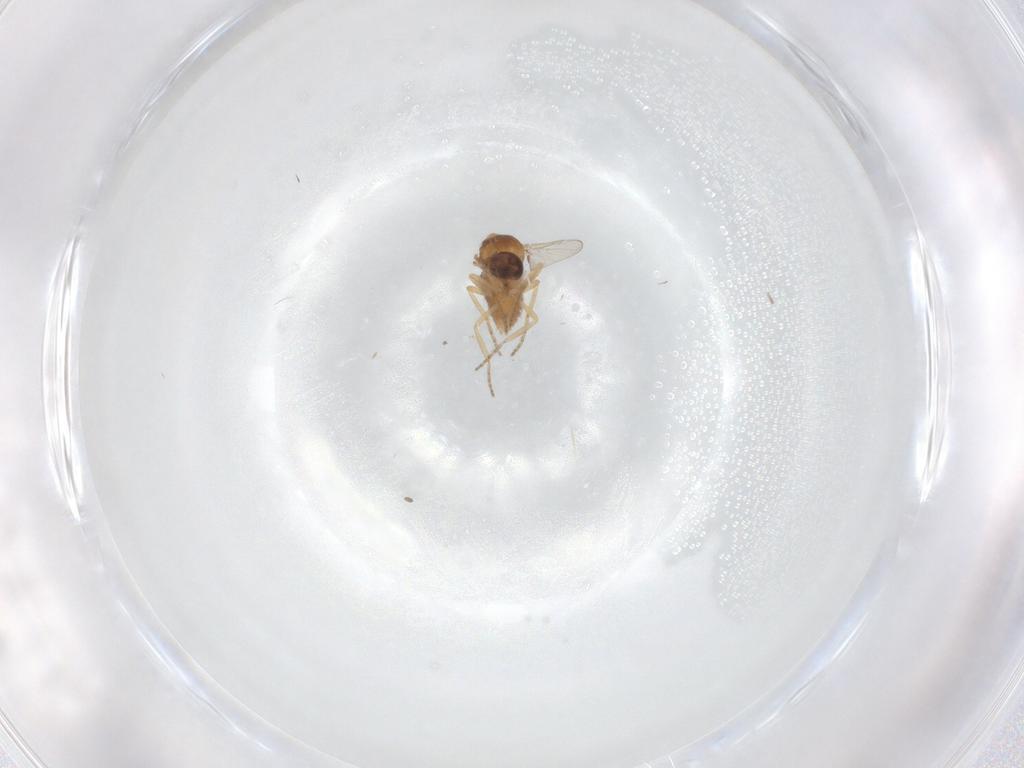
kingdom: Animalia
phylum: Arthropoda
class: Insecta
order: Diptera
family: Ceratopogonidae
